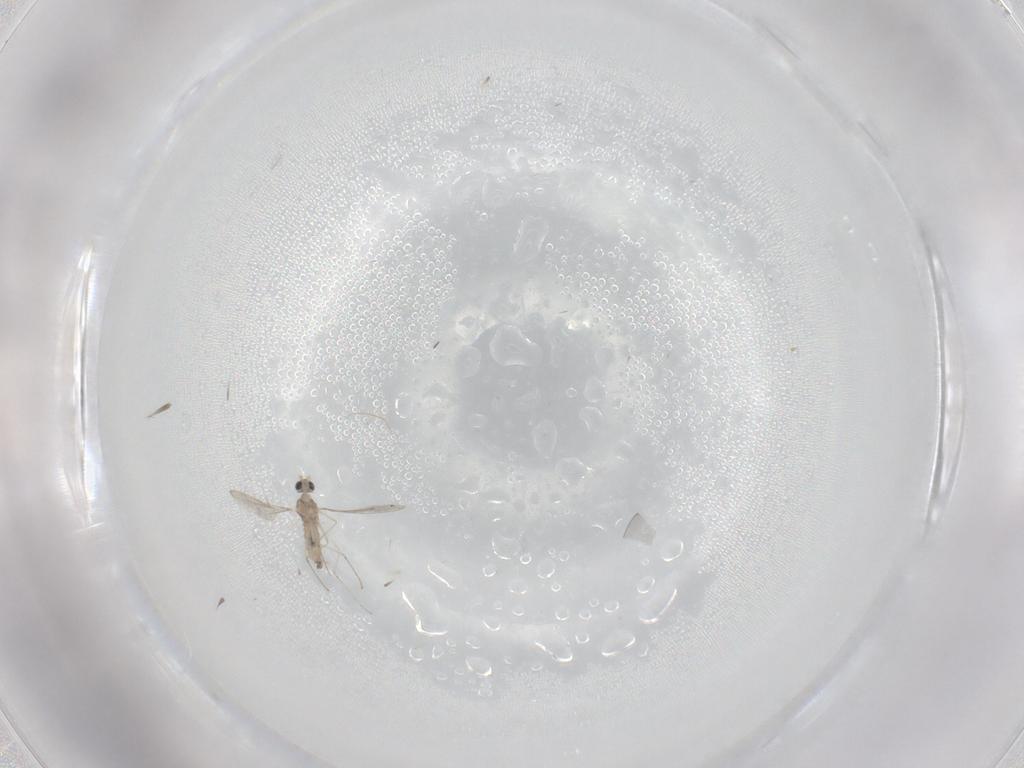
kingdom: Animalia
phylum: Arthropoda
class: Insecta
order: Diptera
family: Cecidomyiidae
